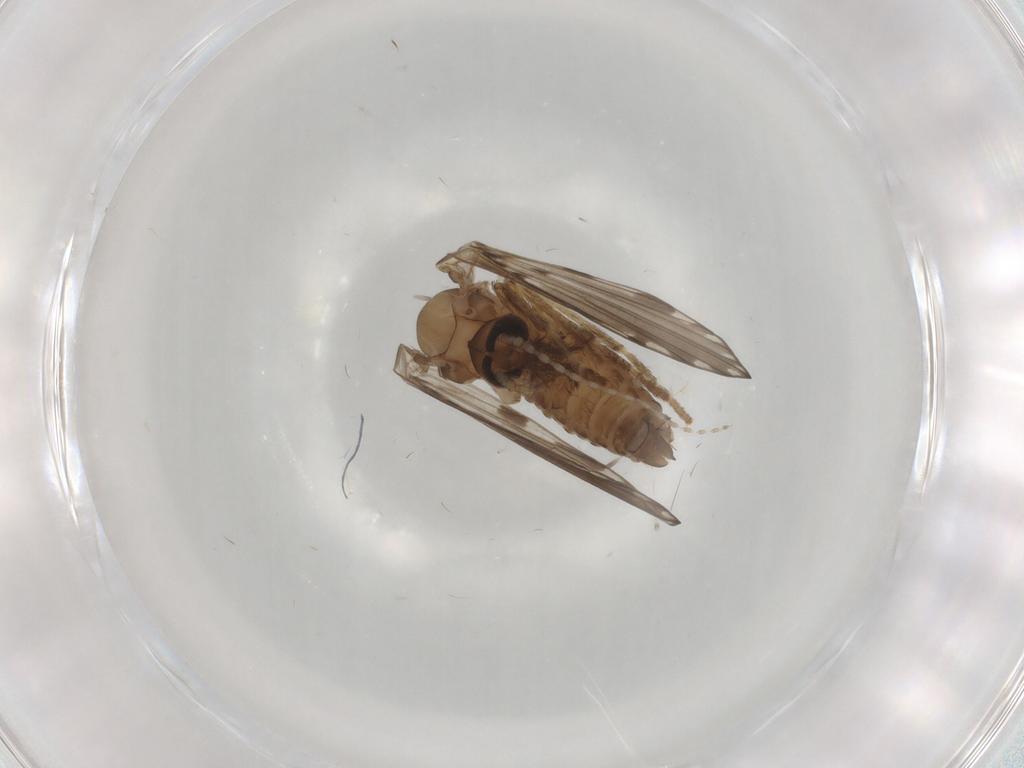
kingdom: Animalia
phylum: Arthropoda
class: Insecta
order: Diptera
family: Psychodidae
